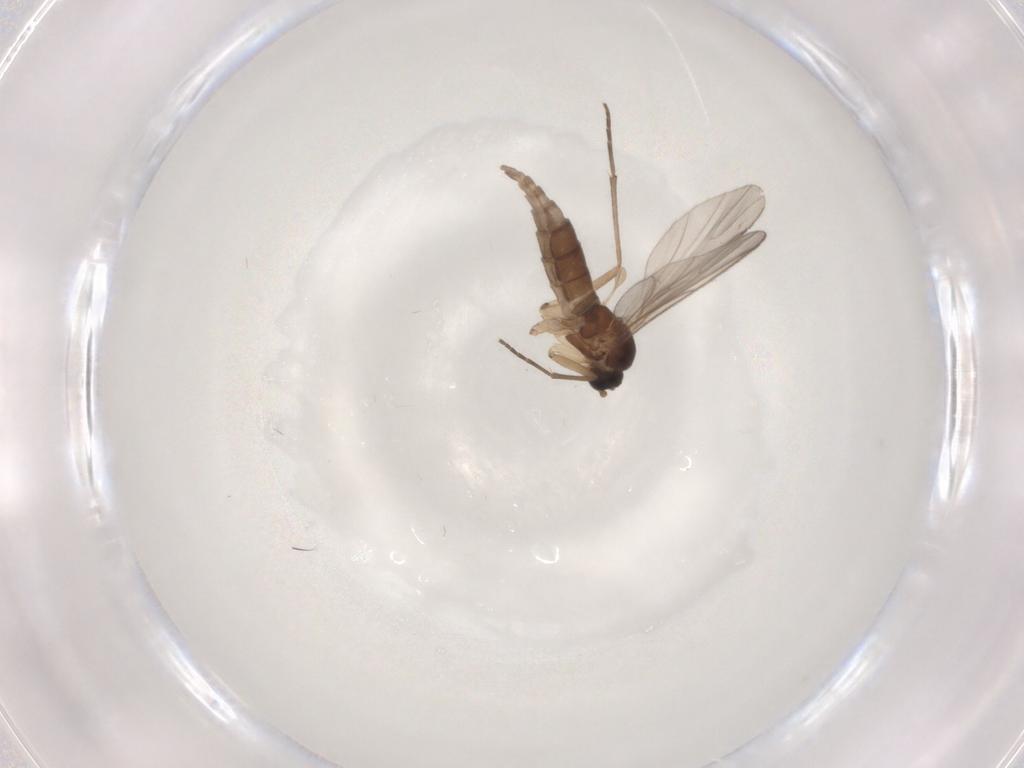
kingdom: Animalia
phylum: Arthropoda
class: Insecta
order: Diptera
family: Sciaridae
